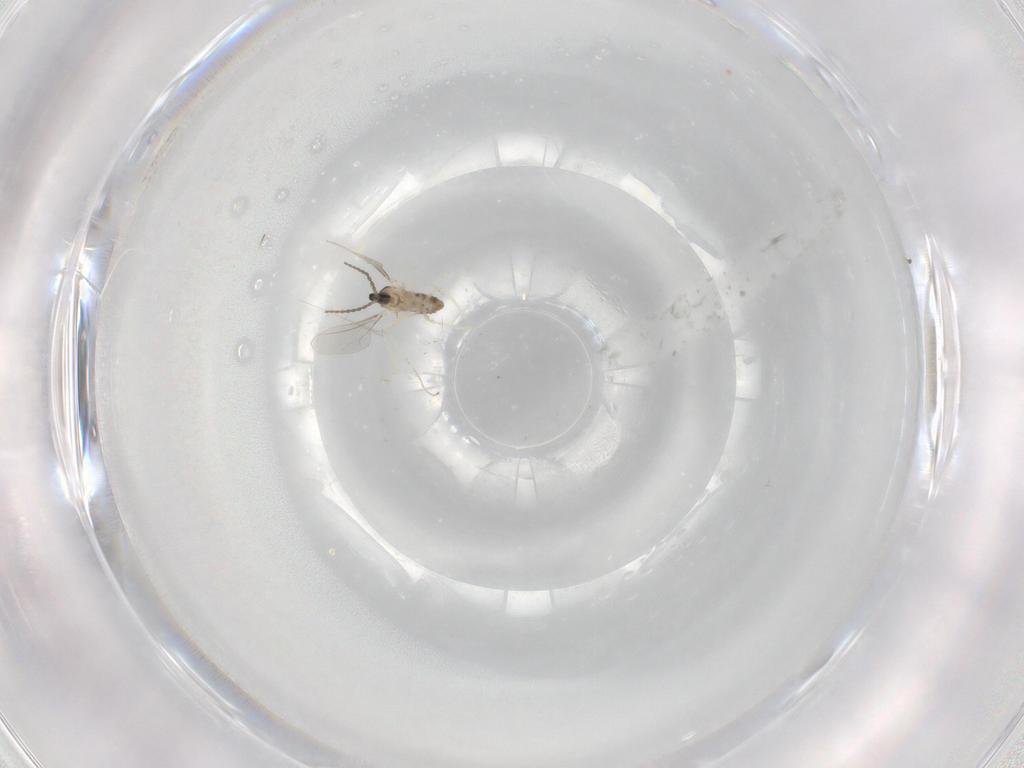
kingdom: Animalia
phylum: Arthropoda
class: Insecta
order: Diptera
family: Cecidomyiidae
